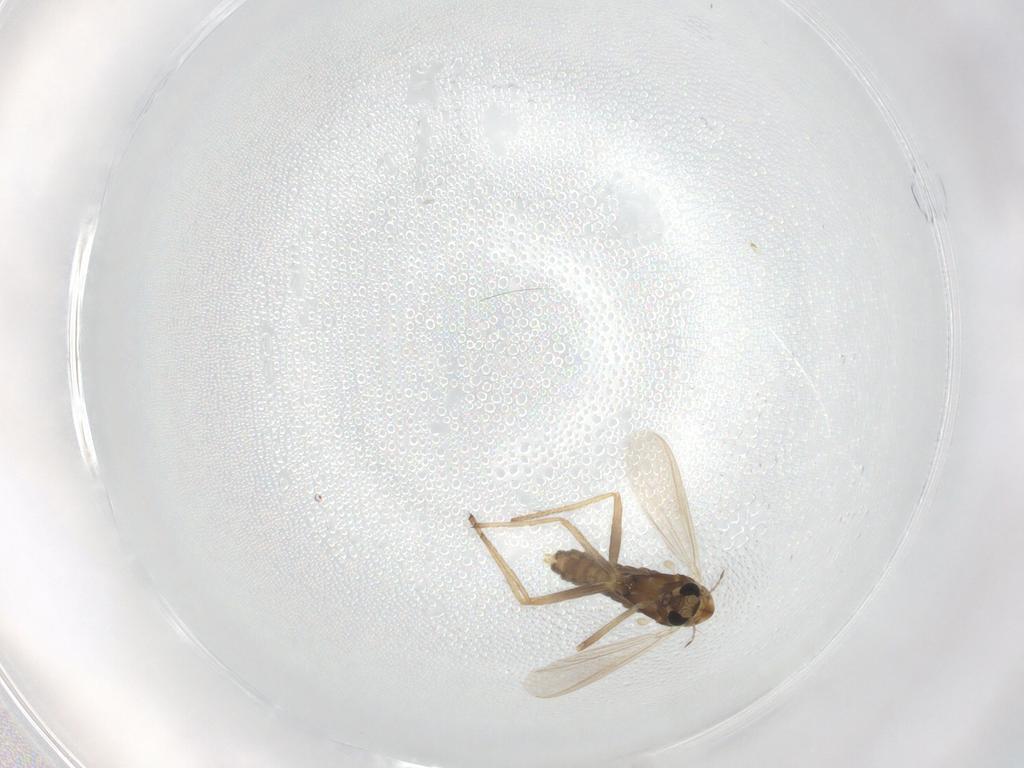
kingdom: Animalia
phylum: Arthropoda
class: Insecta
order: Diptera
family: Chironomidae
